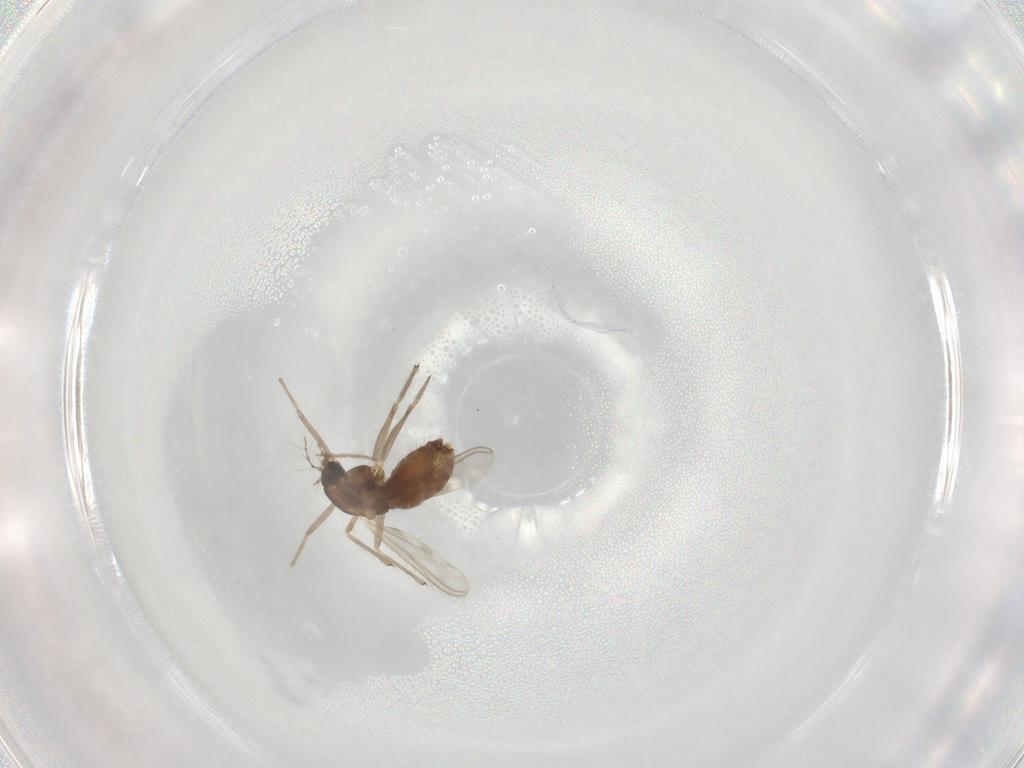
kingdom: Animalia
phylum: Arthropoda
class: Insecta
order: Diptera
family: Chironomidae
